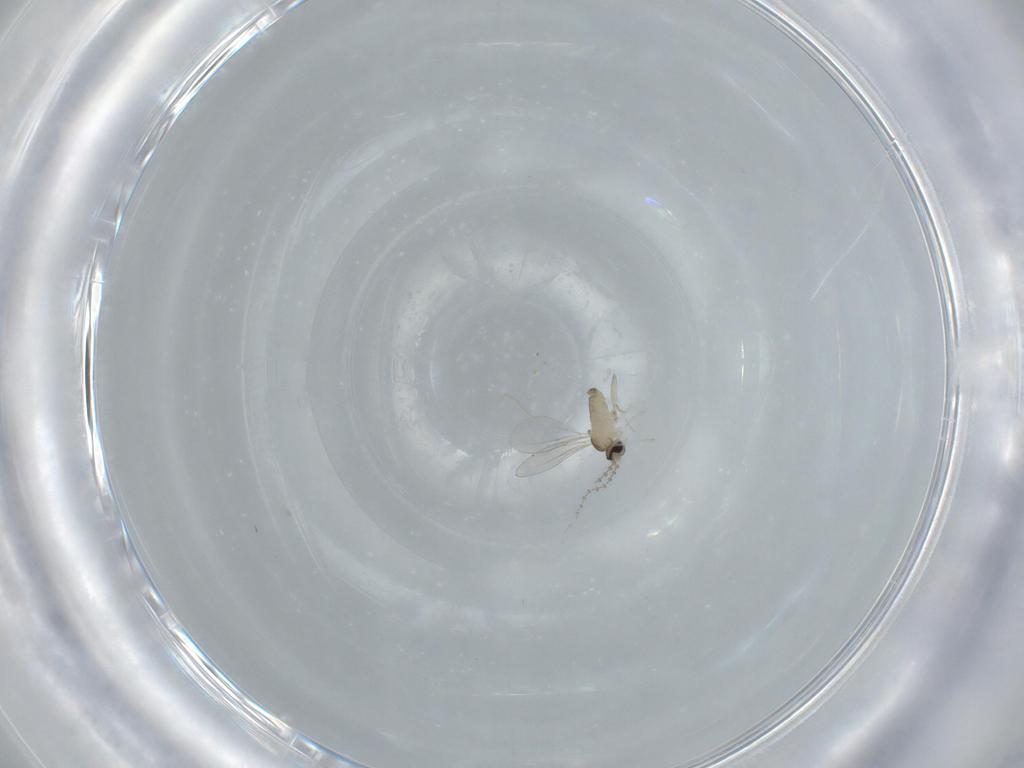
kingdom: Animalia
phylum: Arthropoda
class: Insecta
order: Diptera
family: Cecidomyiidae
